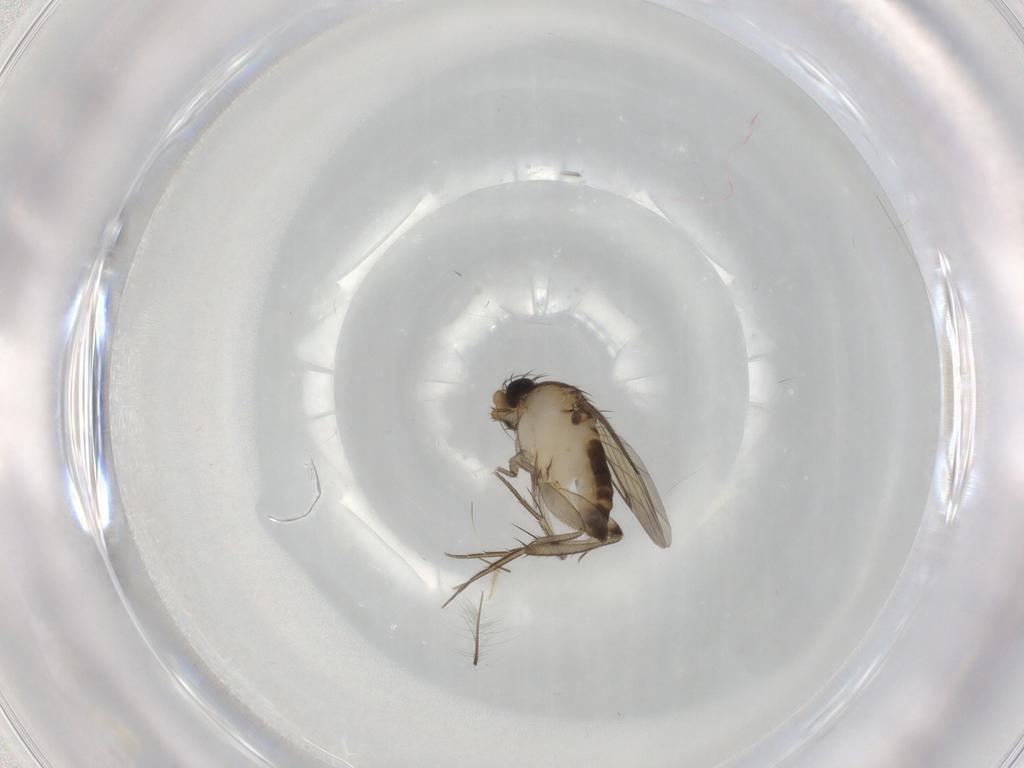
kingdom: Animalia
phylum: Arthropoda
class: Insecta
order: Diptera
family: Phoridae
